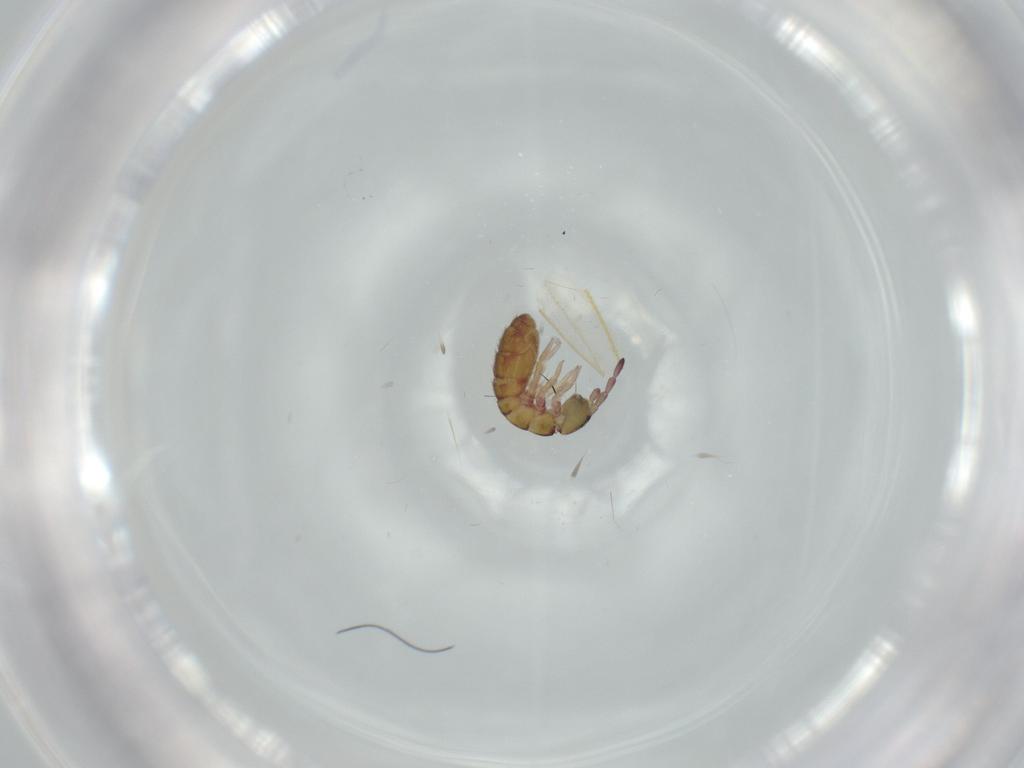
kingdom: Animalia
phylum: Arthropoda
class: Collembola
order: Entomobryomorpha
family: Isotomidae
